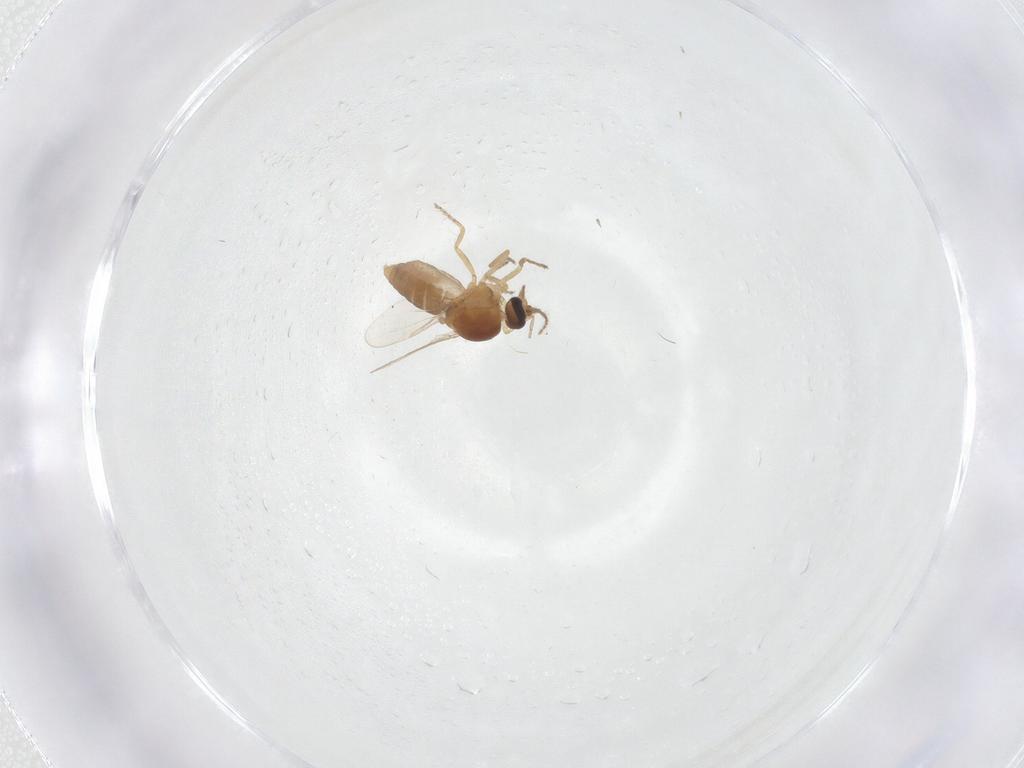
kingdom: Animalia
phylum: Arthropoda
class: Insecta
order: Diptera
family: Ceratopogonidae
